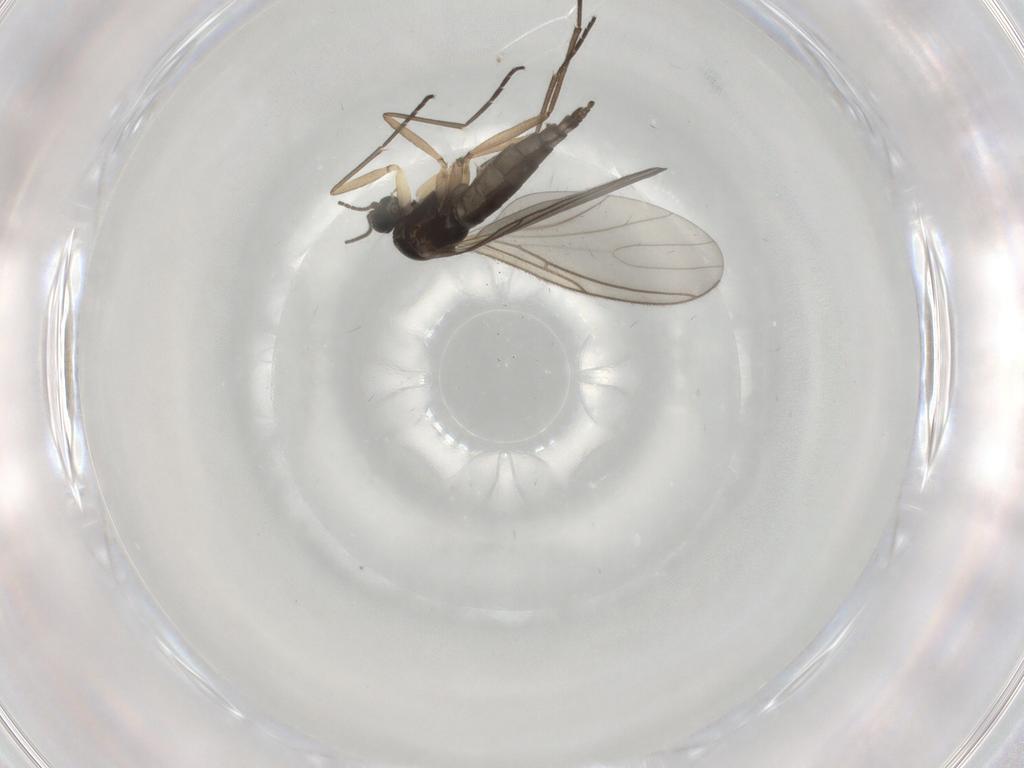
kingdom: Animalia
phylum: Arthropoda
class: Insecta
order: Diptera
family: Sciaridae
